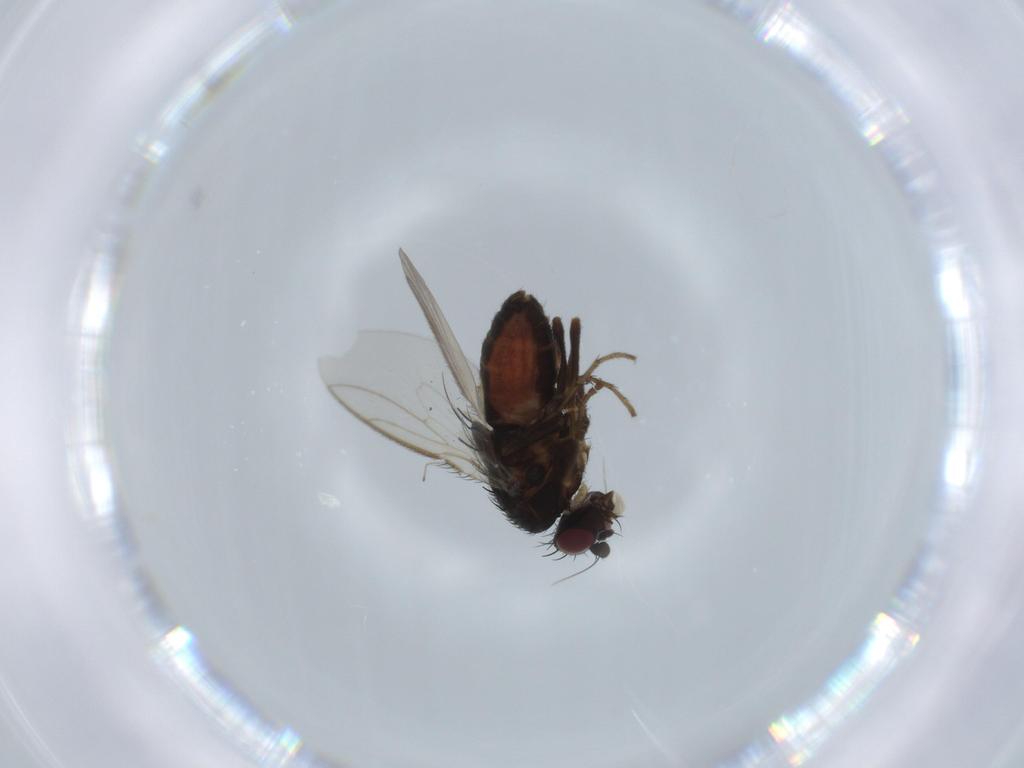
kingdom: Animalia
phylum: Arthropoda
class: Insecta
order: Diptera
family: Sphaeroceridae
